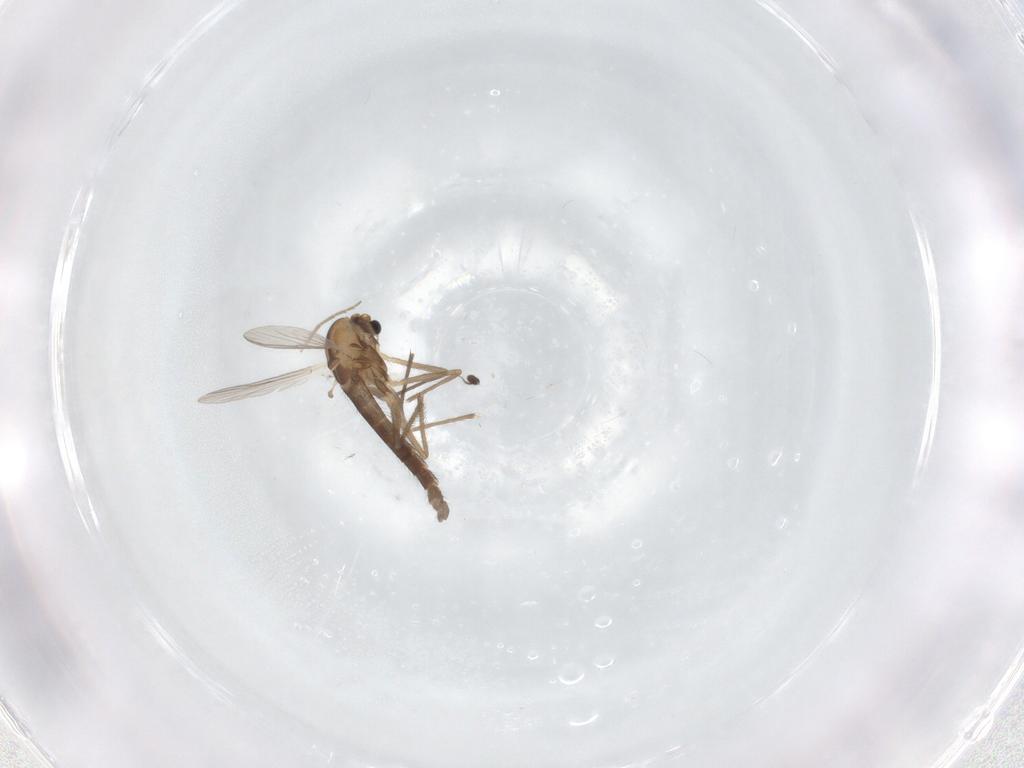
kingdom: Animalia
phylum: Arthropoda
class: Insecta
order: Diptera
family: Chironomidae
